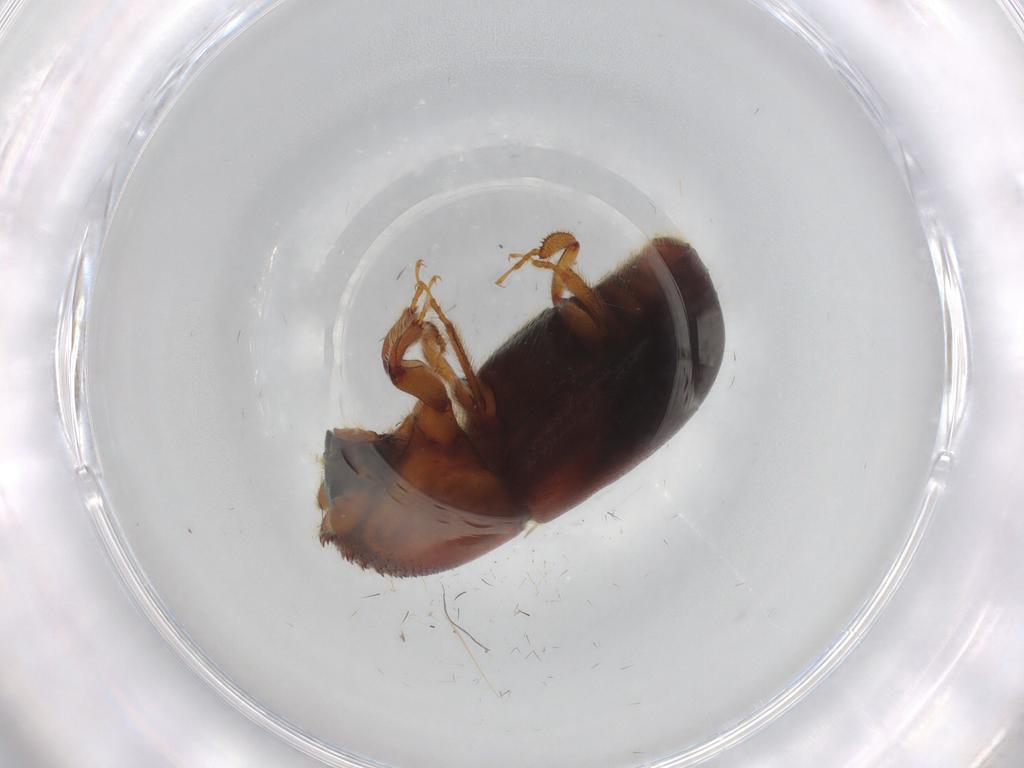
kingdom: Animalia
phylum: Arthropoda
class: Insecta
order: Coleoptera
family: Curculionidae
